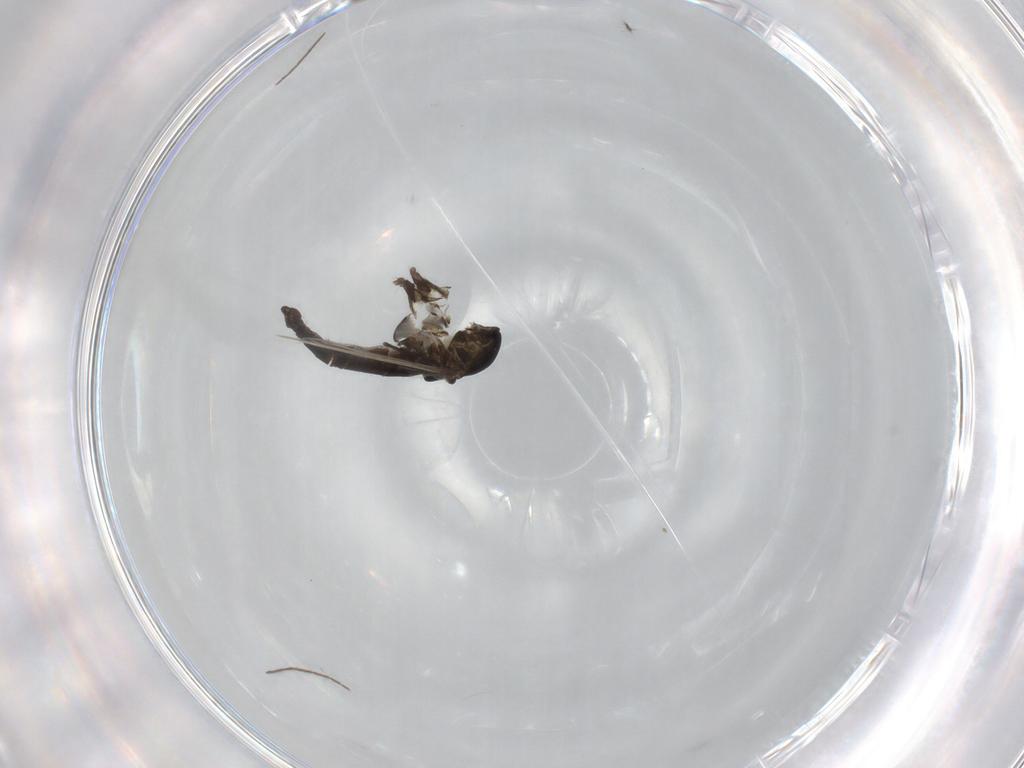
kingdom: Animalia
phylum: Arthropoda
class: Insecta
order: Diptera
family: Chironomidae
